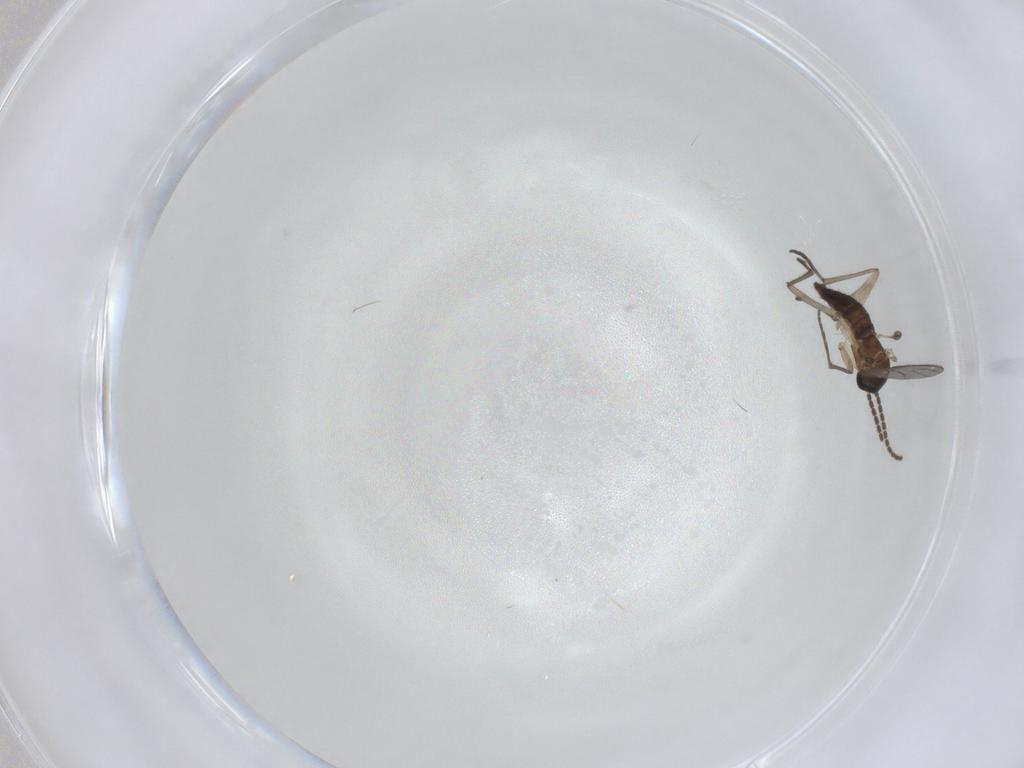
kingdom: Animalia
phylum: Arthropoda
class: Insecta
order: Diptera
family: Sciaridae
